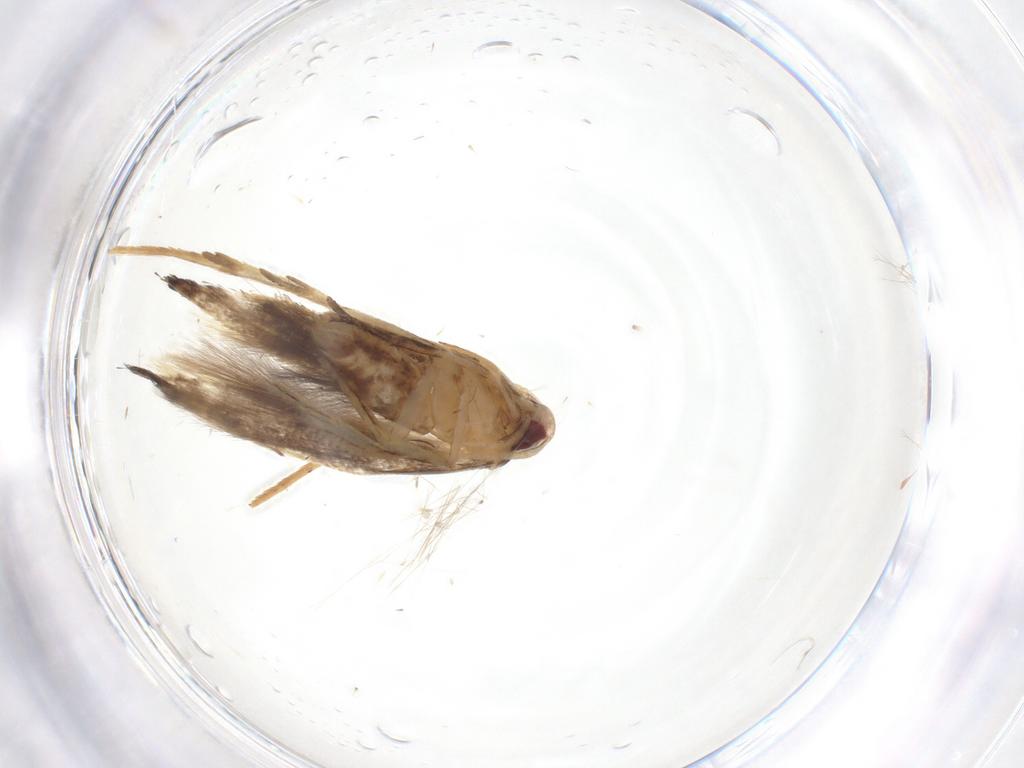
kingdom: Animalia
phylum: Arthropoda
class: Insecta
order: Lepidoptera
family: Cosmopterigidae
